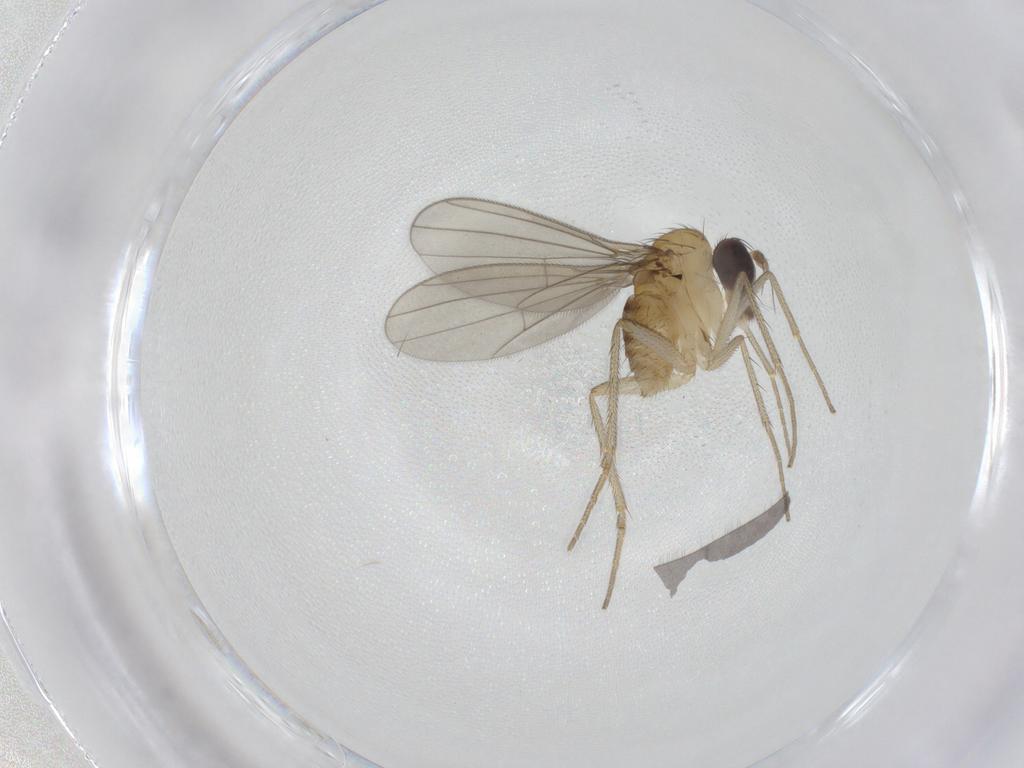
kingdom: Animalia
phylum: Arthropoda
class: Insecta
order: Diptera
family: Dolichopodidae
